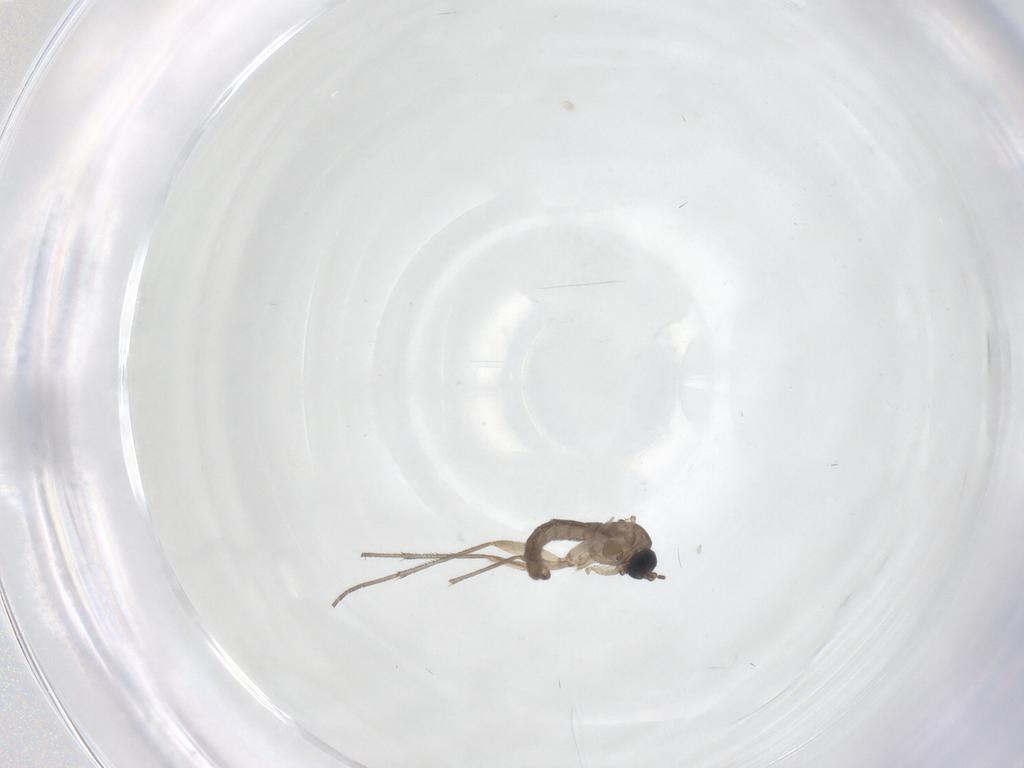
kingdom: Animalia
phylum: Arthropoda
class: Insecta
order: Diptera
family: Sciaridae
